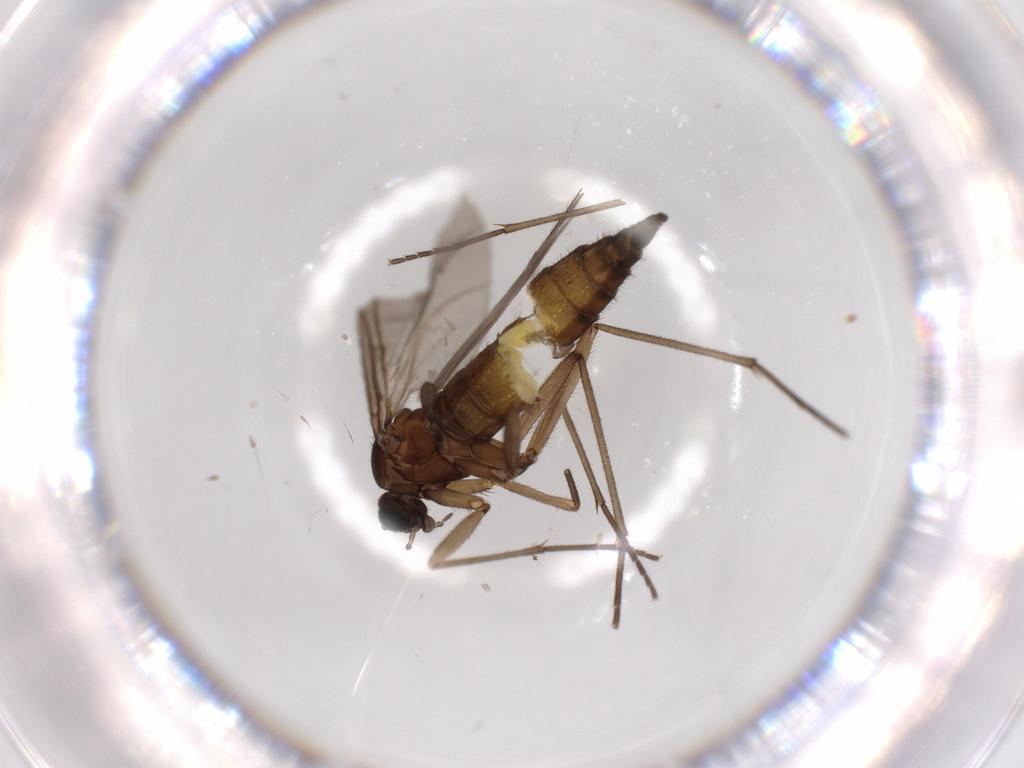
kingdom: Animalia
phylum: Arthropoda
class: Insecta
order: Diptera
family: Sciaridae
